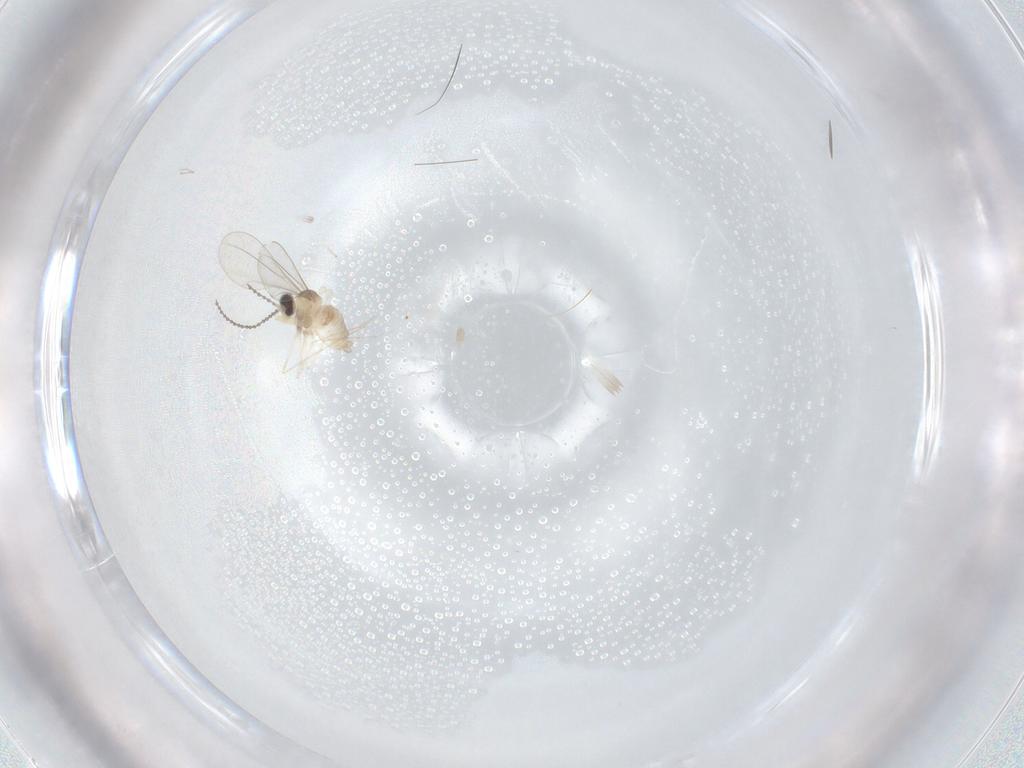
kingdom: Animalia
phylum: Arthropoda
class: Insecta
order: Diptera
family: Cecidomyiidae
